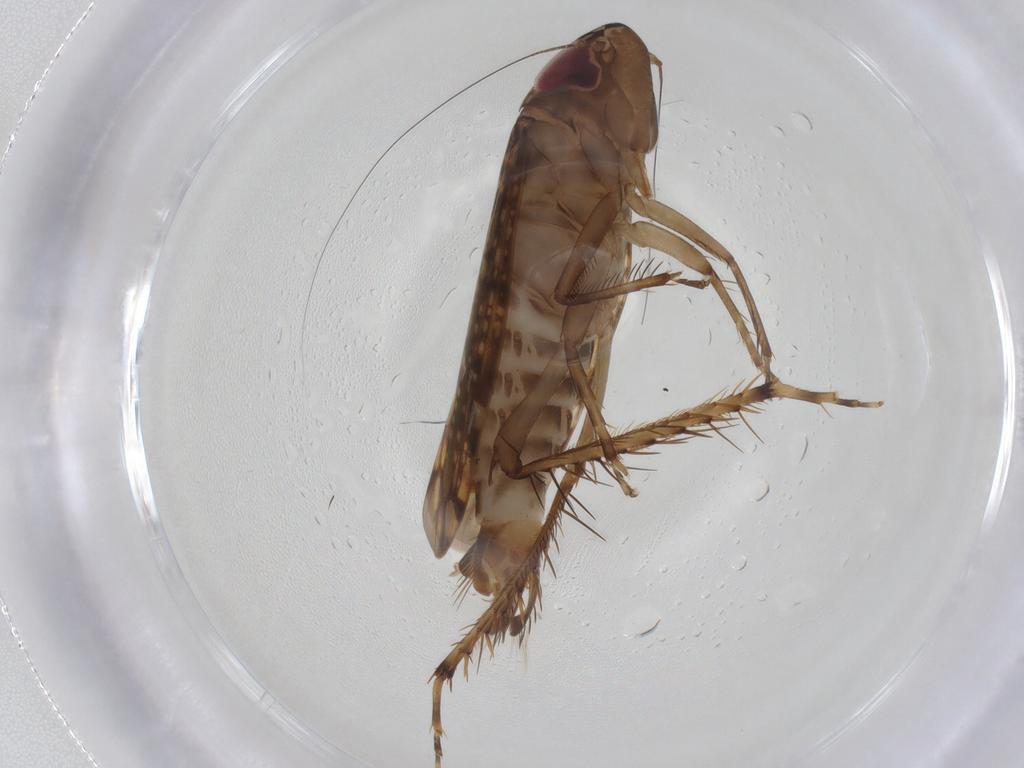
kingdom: Animalia
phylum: Arthropoda
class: Insecta
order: Hemiptera
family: Cicadellidae
